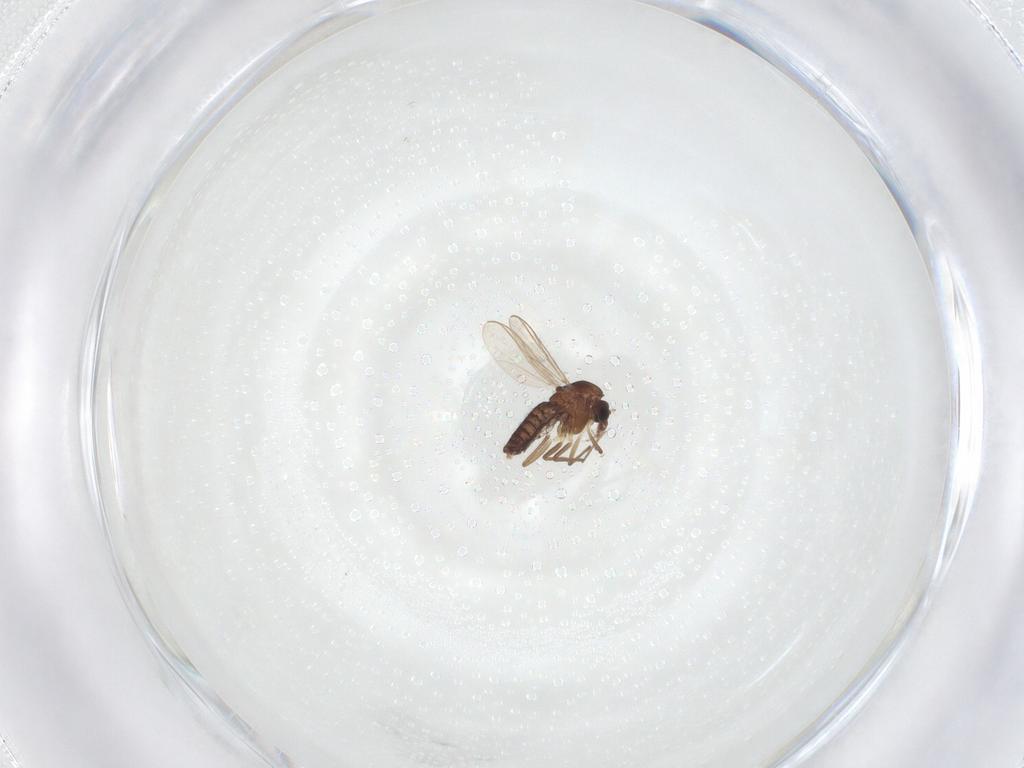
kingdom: Animalia
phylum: Arthropoda
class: Insecta
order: Diptera
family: Chironomidae
